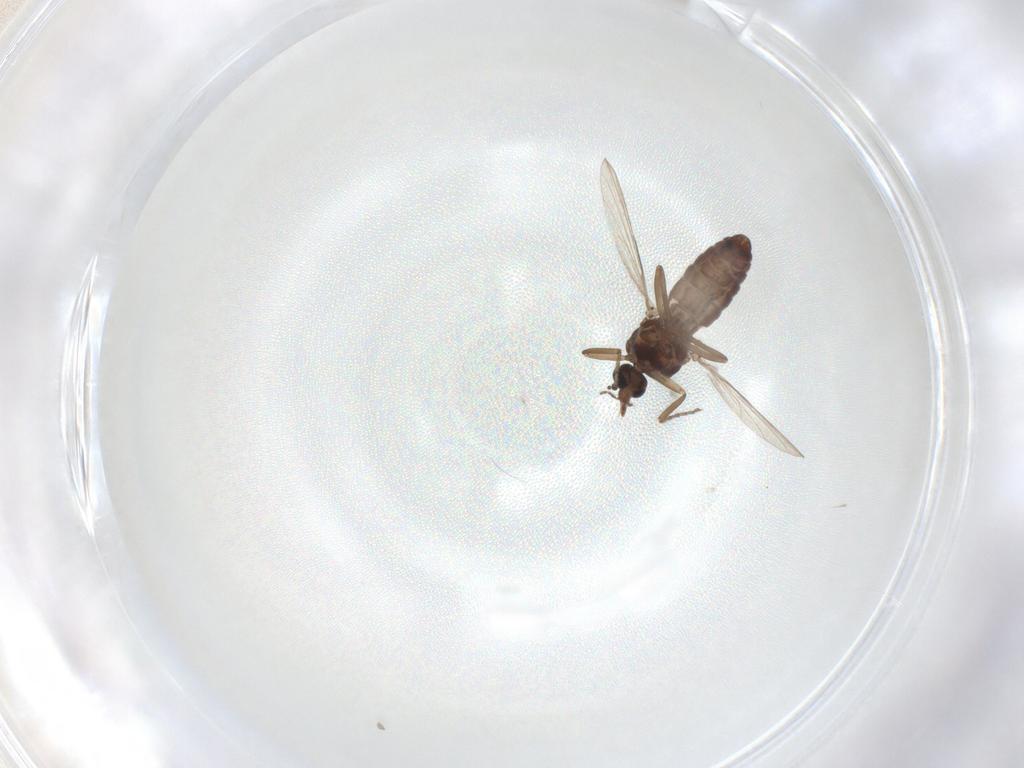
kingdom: Animalia
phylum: Arthropoda
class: Insecta
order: Diptera
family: Ceratopogonidae
